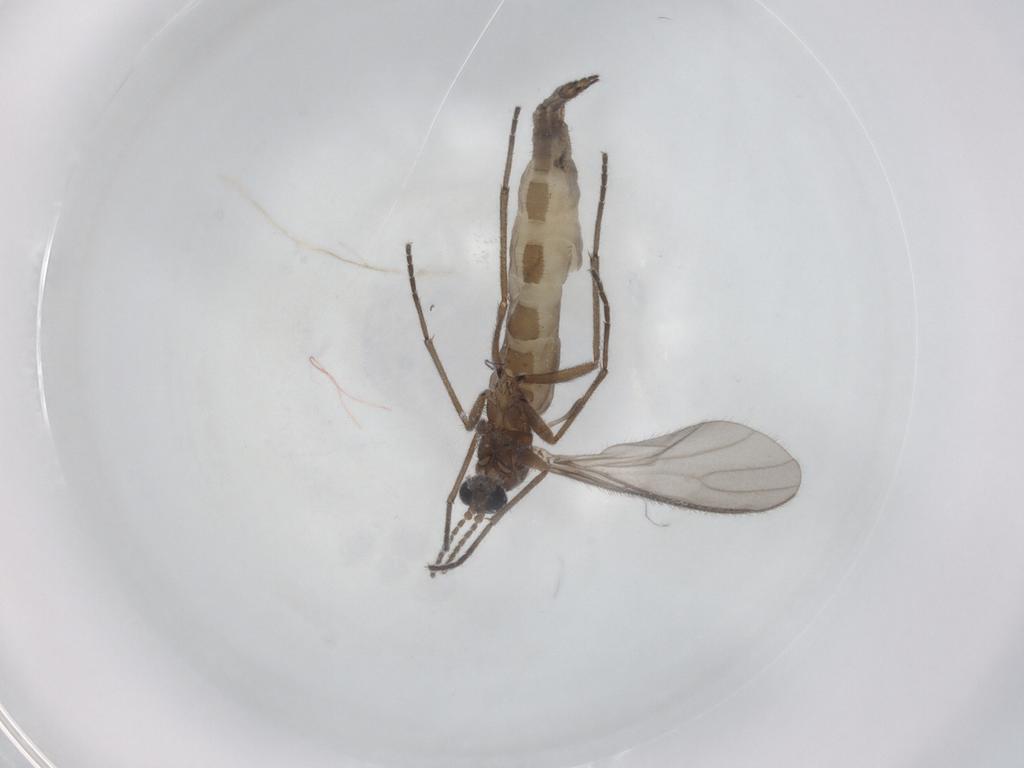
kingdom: Animalia
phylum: Arthropoda
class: Insecta
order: Diptera
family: Sciaridae
